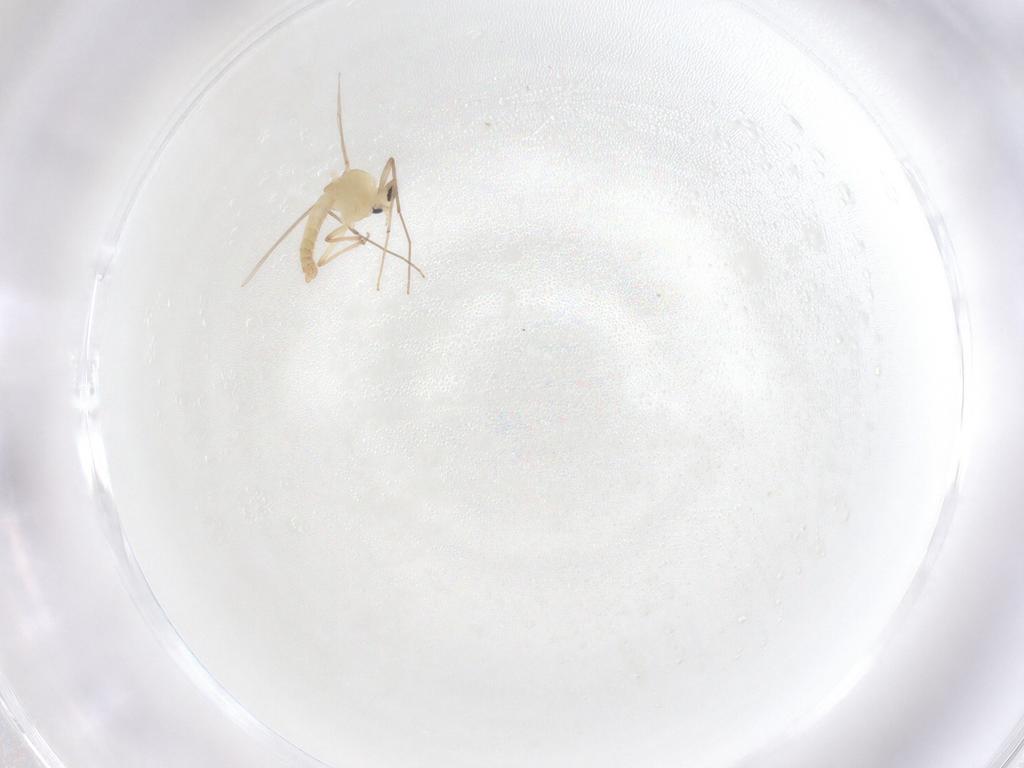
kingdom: Animalia
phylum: Arthropoda
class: Insecta
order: Diptera
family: Chironomidae
